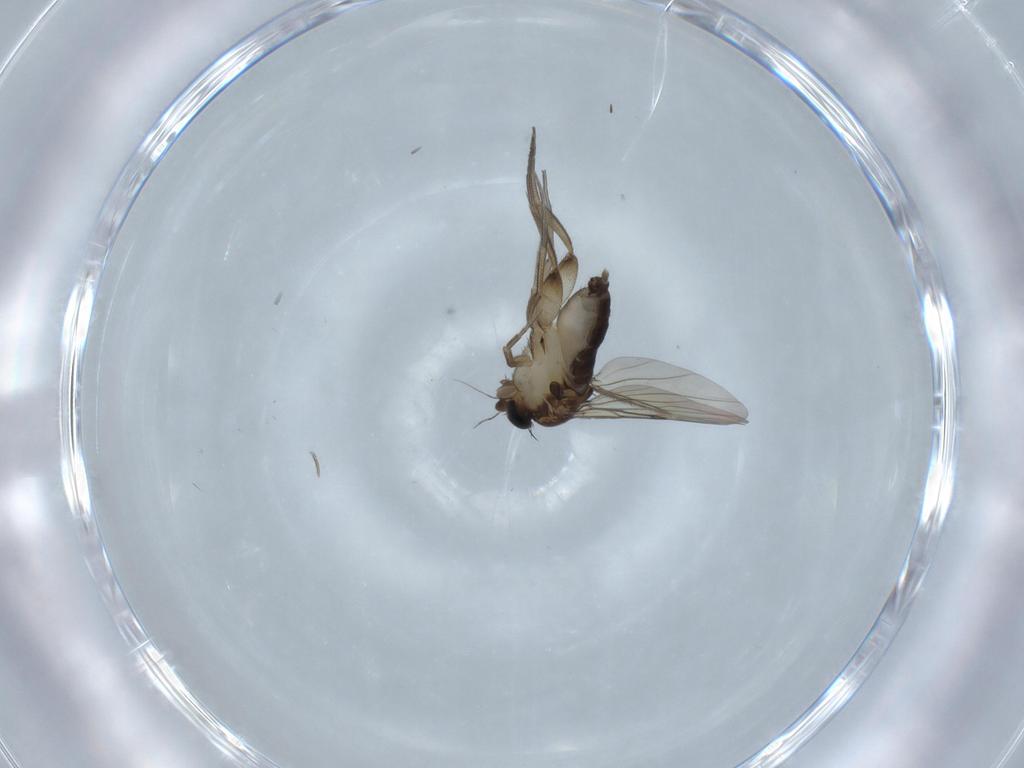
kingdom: Animalia
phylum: Arthropoda
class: Insecta
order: Diptera
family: Phoridae
